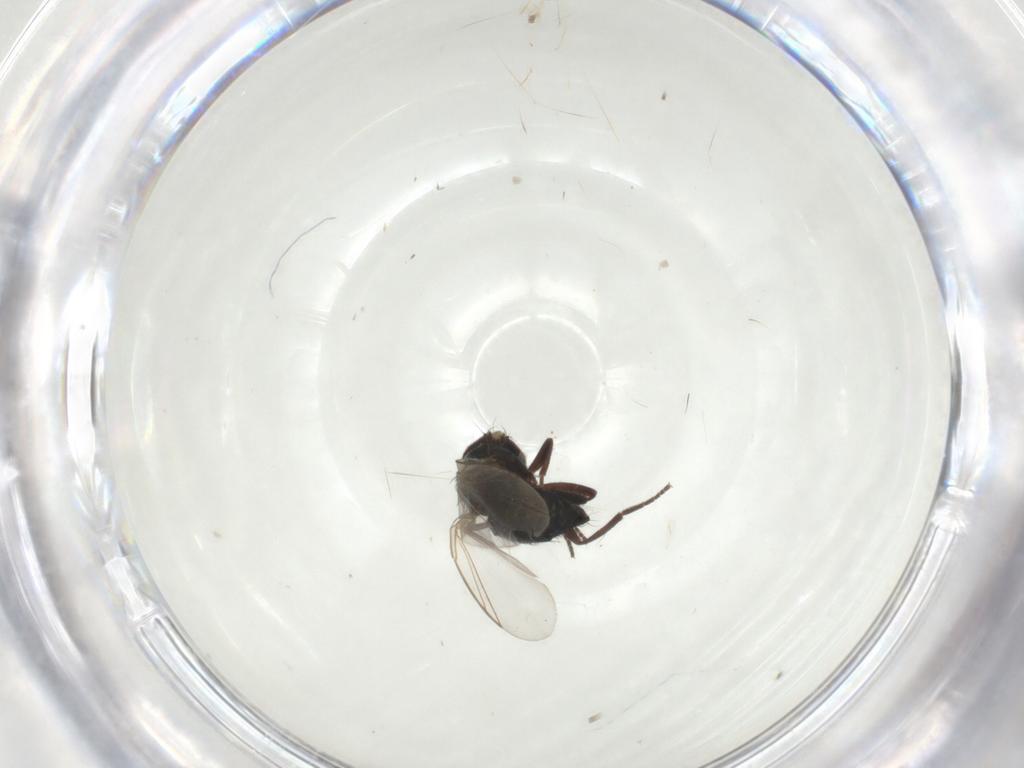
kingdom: Animalia
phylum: Arthropoda
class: Insecta
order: Diptera
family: Agromyzidae
